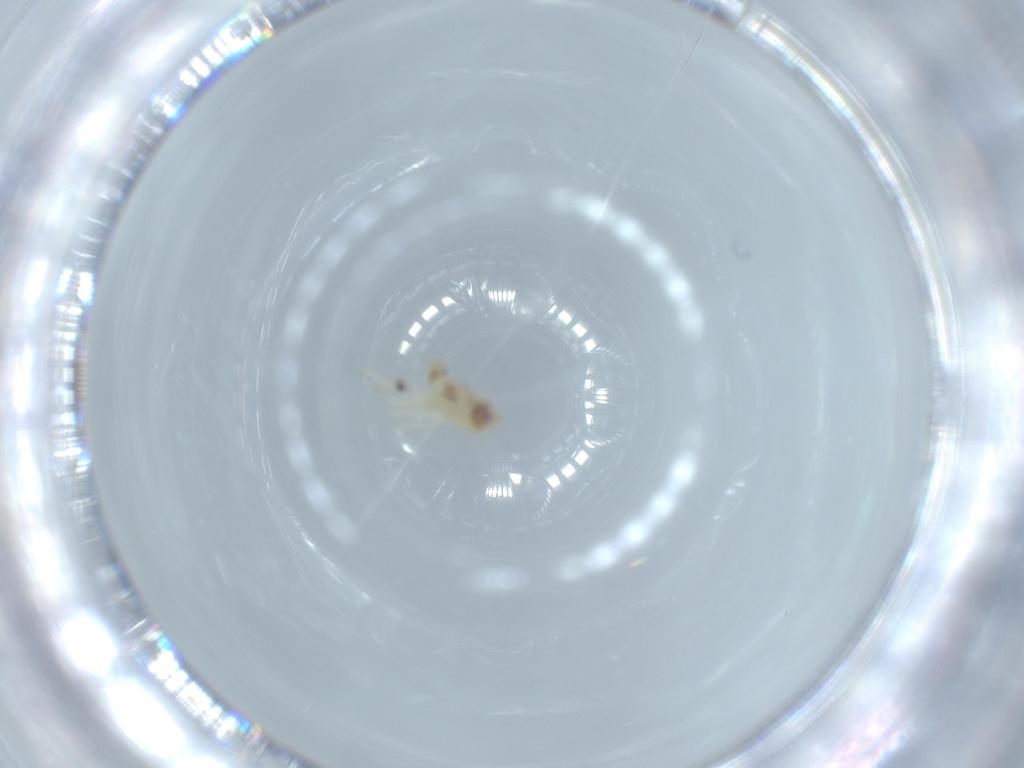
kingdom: Animalia
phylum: Arthropoda
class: Insecta
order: Hemiptera
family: Nogodinidae
